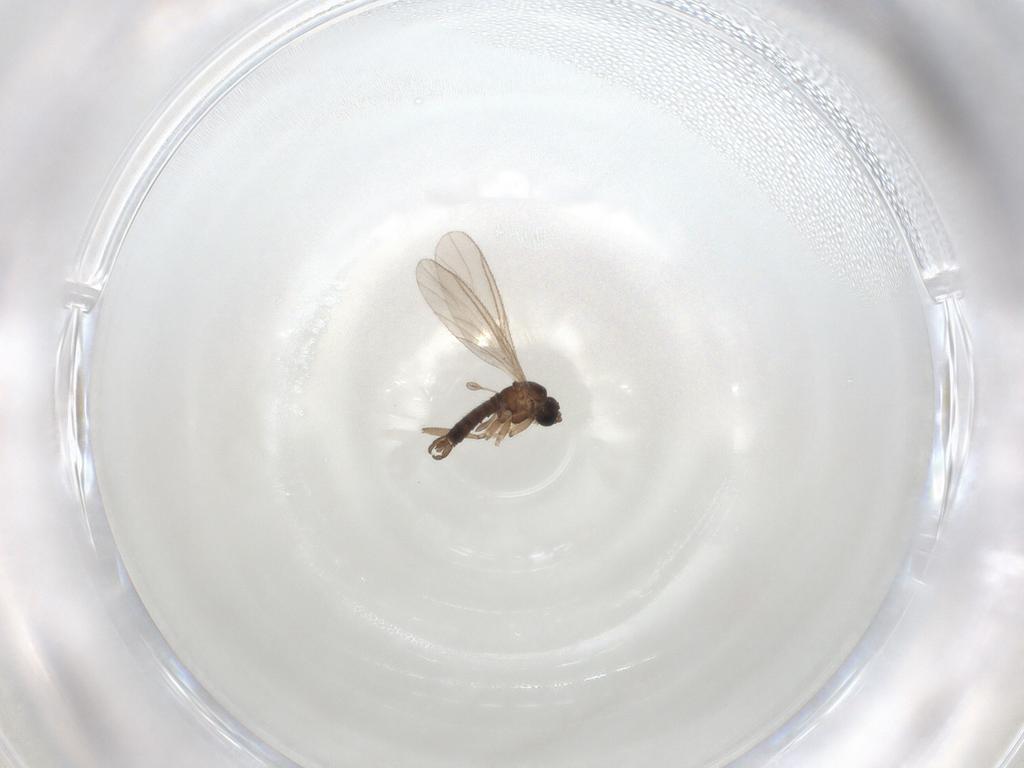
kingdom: Animalia
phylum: Arthropoda
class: Insecta
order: Diptera
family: Sciaridae
